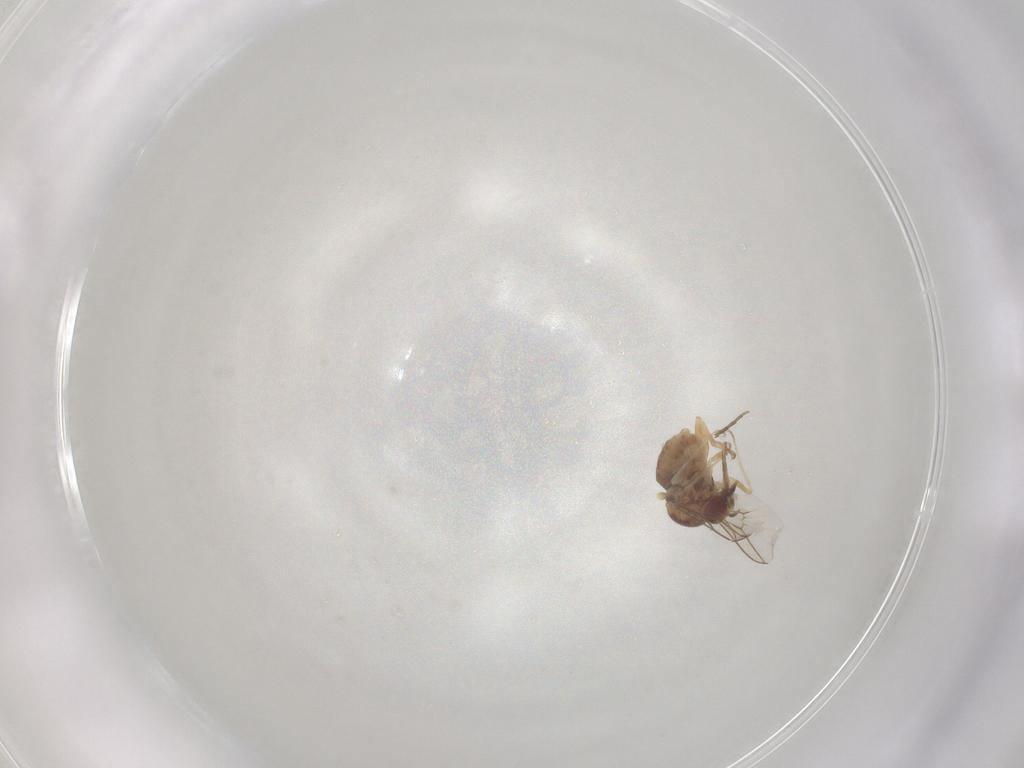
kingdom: Animalia
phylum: Arthropoda
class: Insecta
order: Diptera
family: Mythicomyiidae
